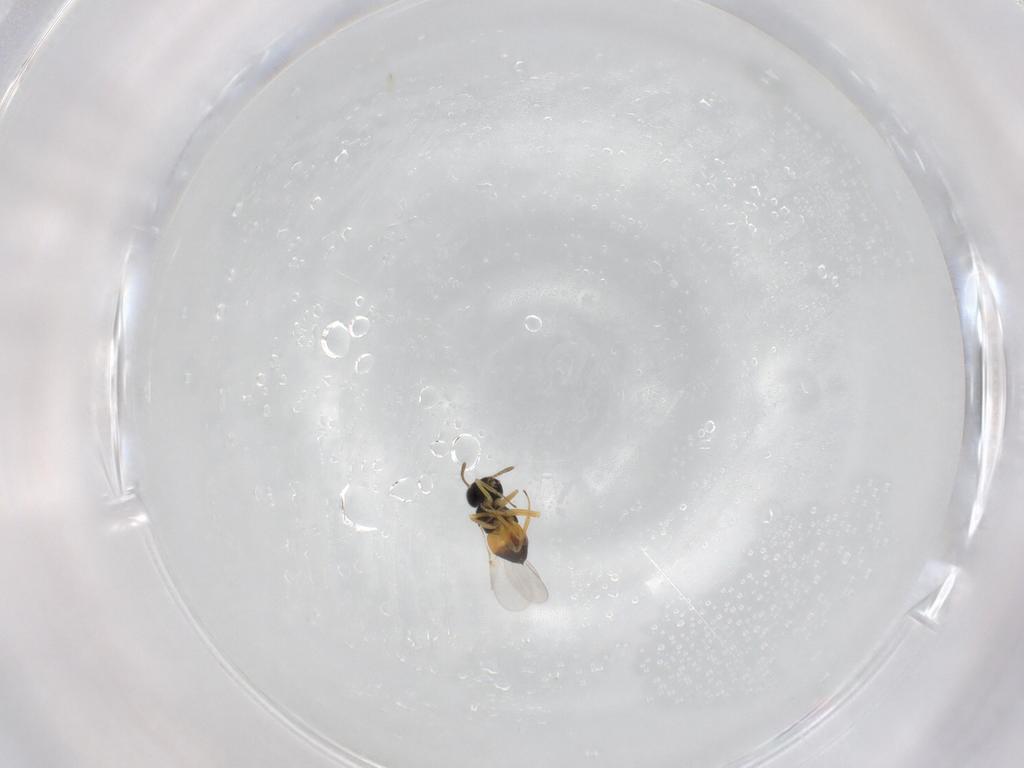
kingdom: Animalia
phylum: Arthropoda
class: Insecta
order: Hymenoptera
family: Encyrtidae
